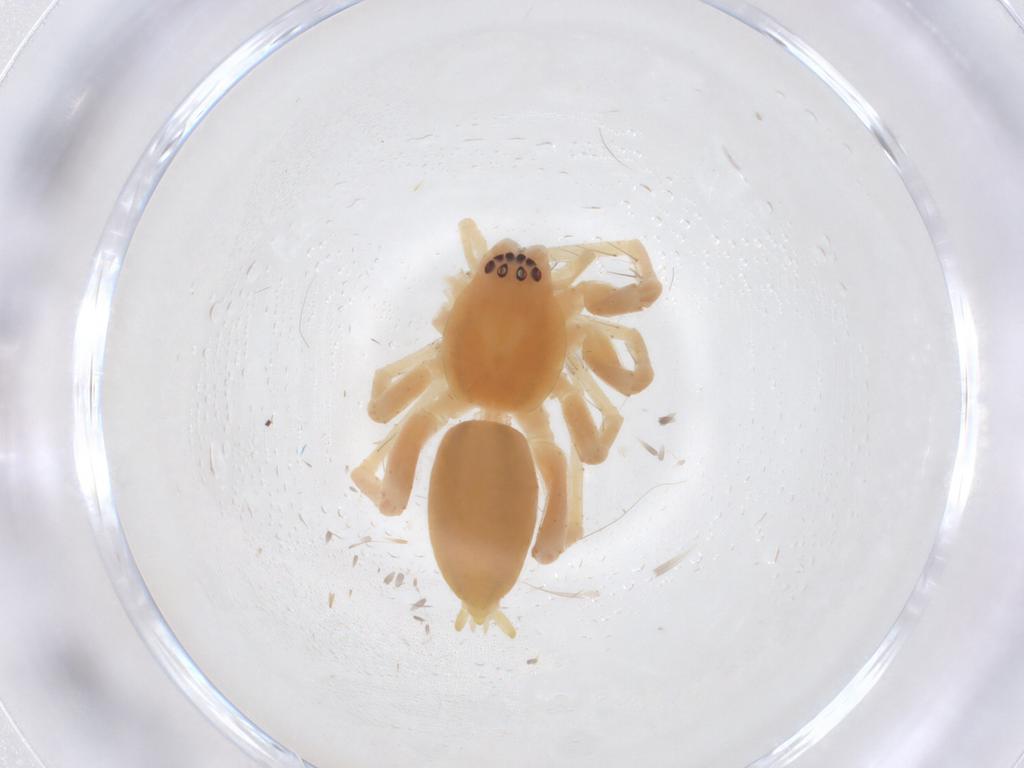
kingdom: Animalia
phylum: Arthropoda
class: Arachnida
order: Araneae
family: Anyphaenidae
